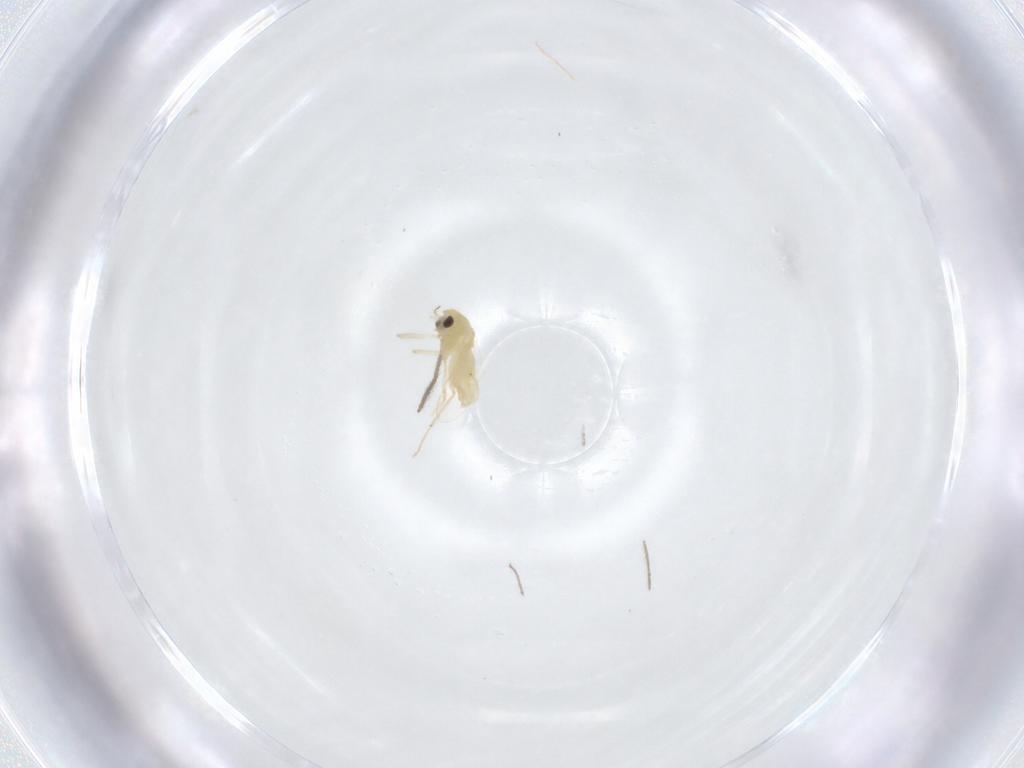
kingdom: Animalia
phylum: Arthropoda
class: Insecta
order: Diptera
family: Chironomidae
